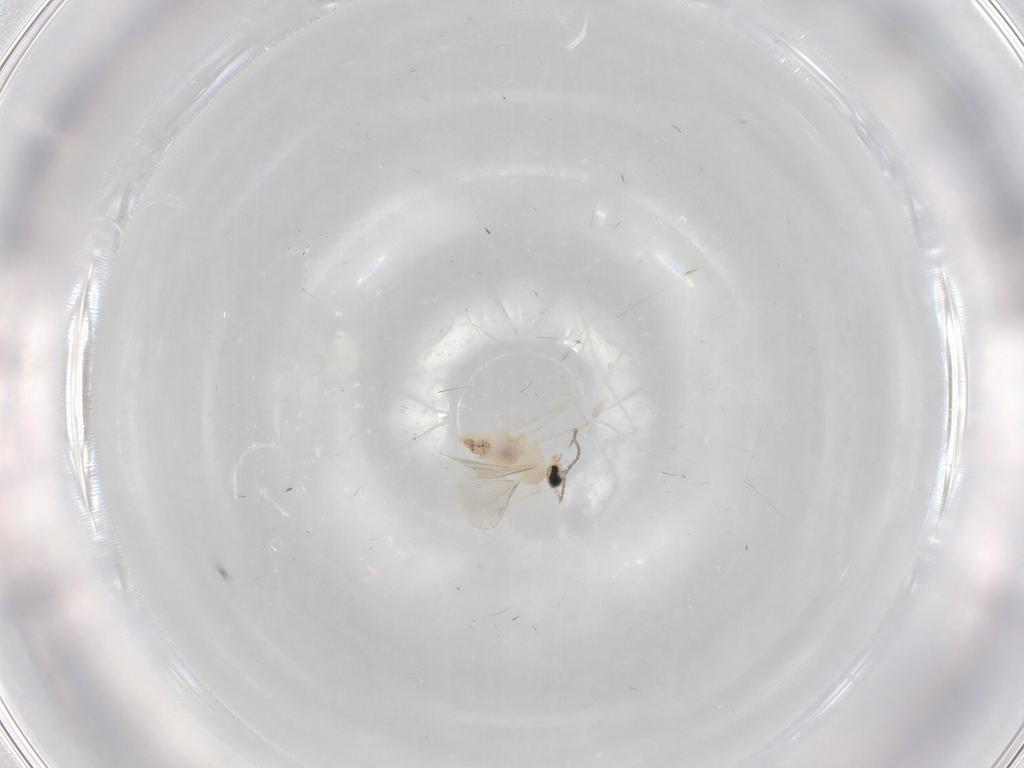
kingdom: Animalia
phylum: Arthropoda
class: Insecta
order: Diptera
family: Cecidomyiidae
